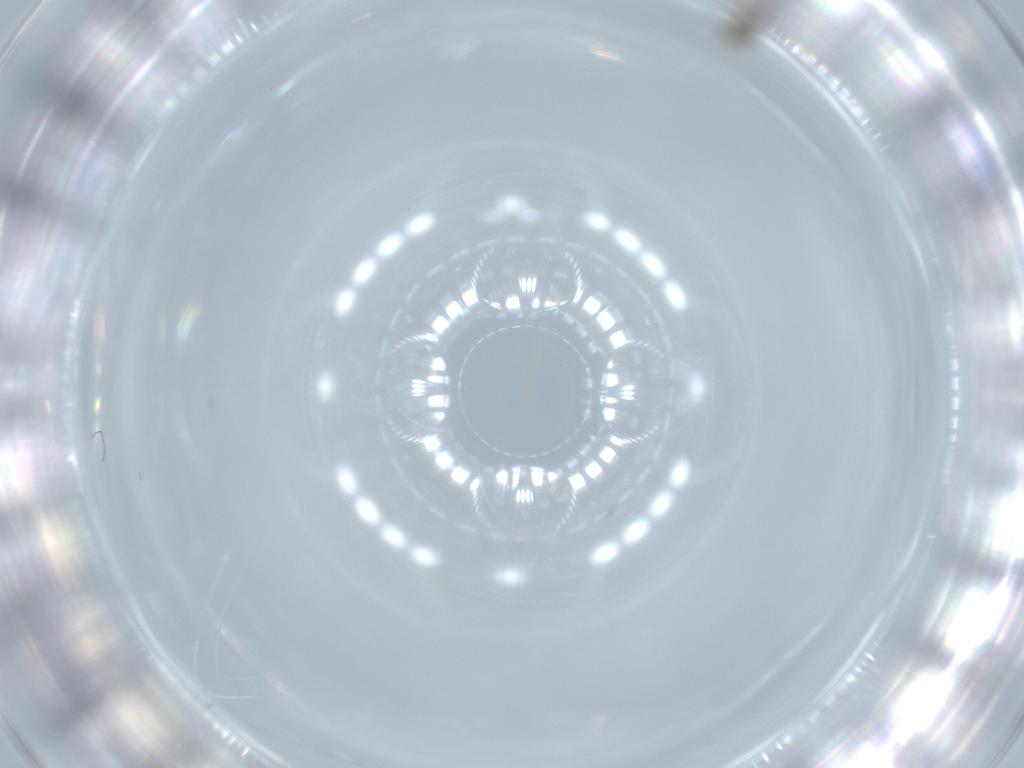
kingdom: Animalia
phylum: Arthropoda
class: Insecta
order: Diptera
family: Cecidomyiidae
